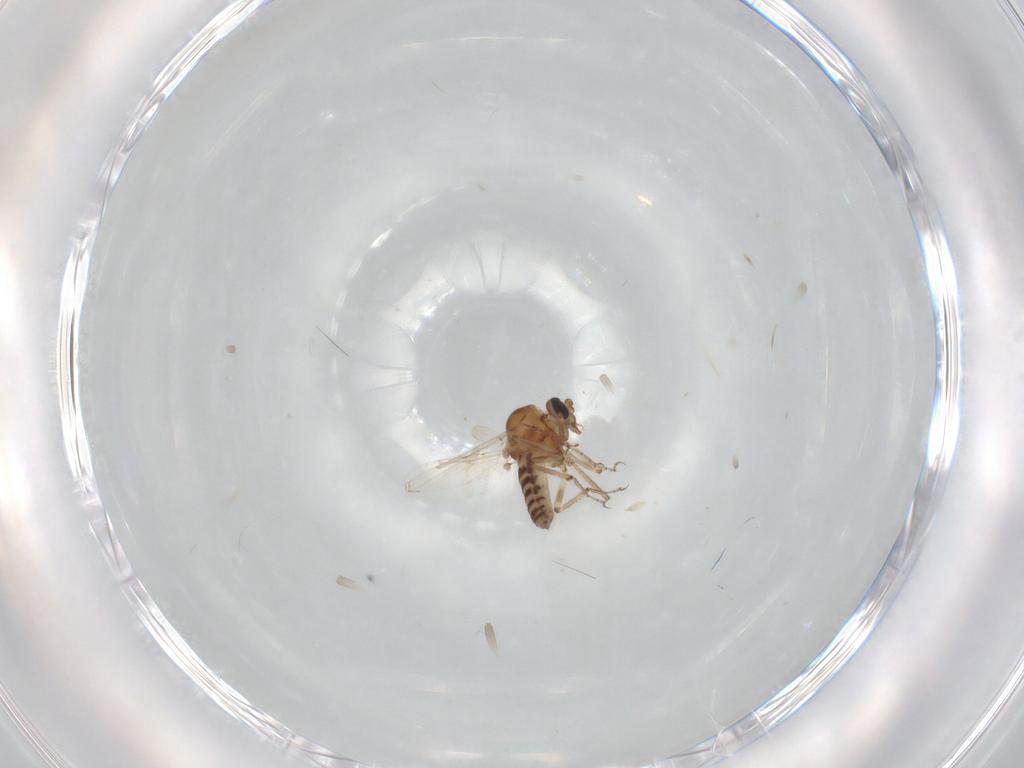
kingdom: Animalia
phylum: Arthropoda
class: Insecta
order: Diptera
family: Ceratopogonidae
